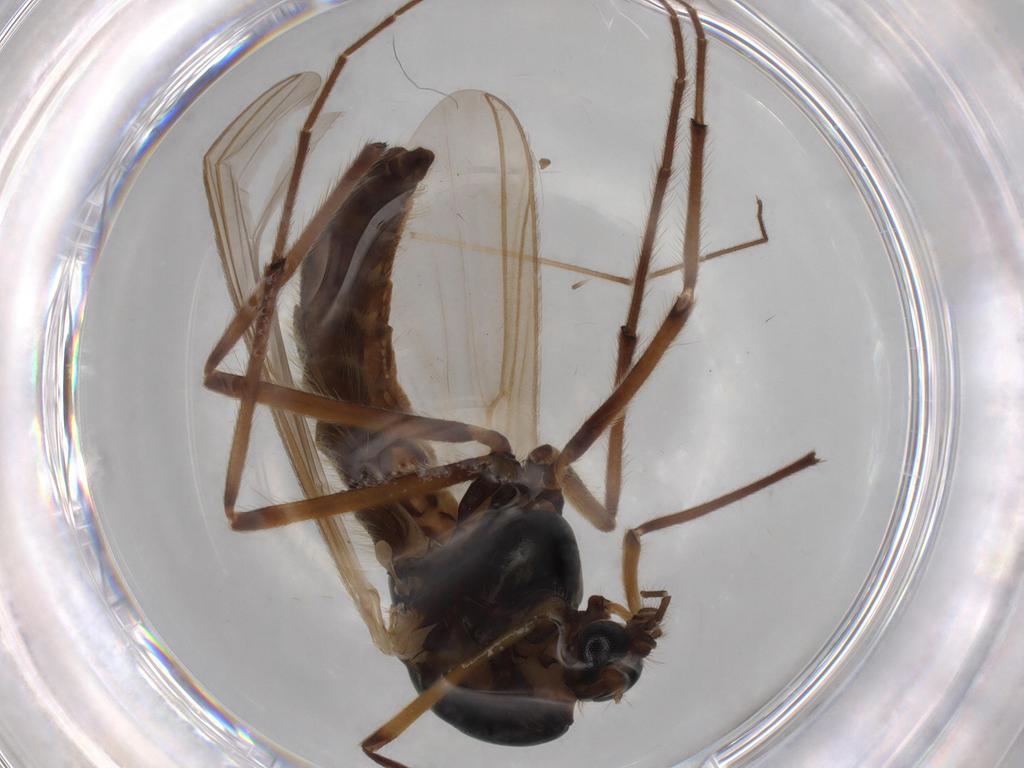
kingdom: Animalia
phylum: Arthropoda
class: Insecta
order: Diptera
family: Chironomidae
